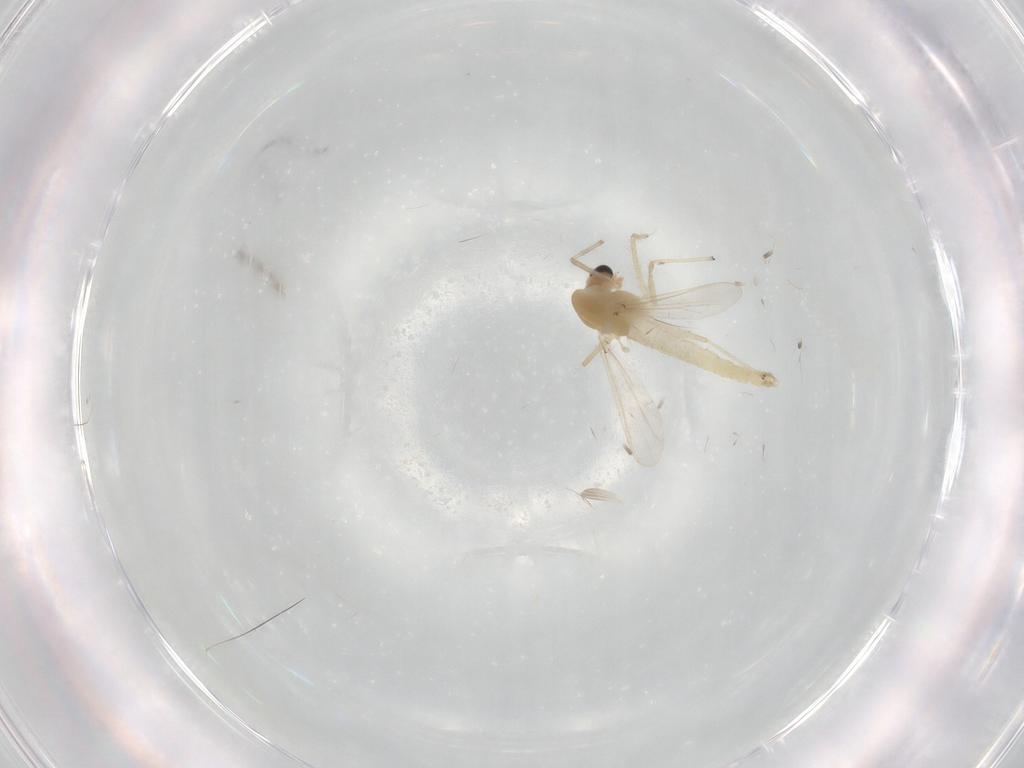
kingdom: Animalia
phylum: Arthropoda
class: Insecta
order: Diptera
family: Chironomidae
